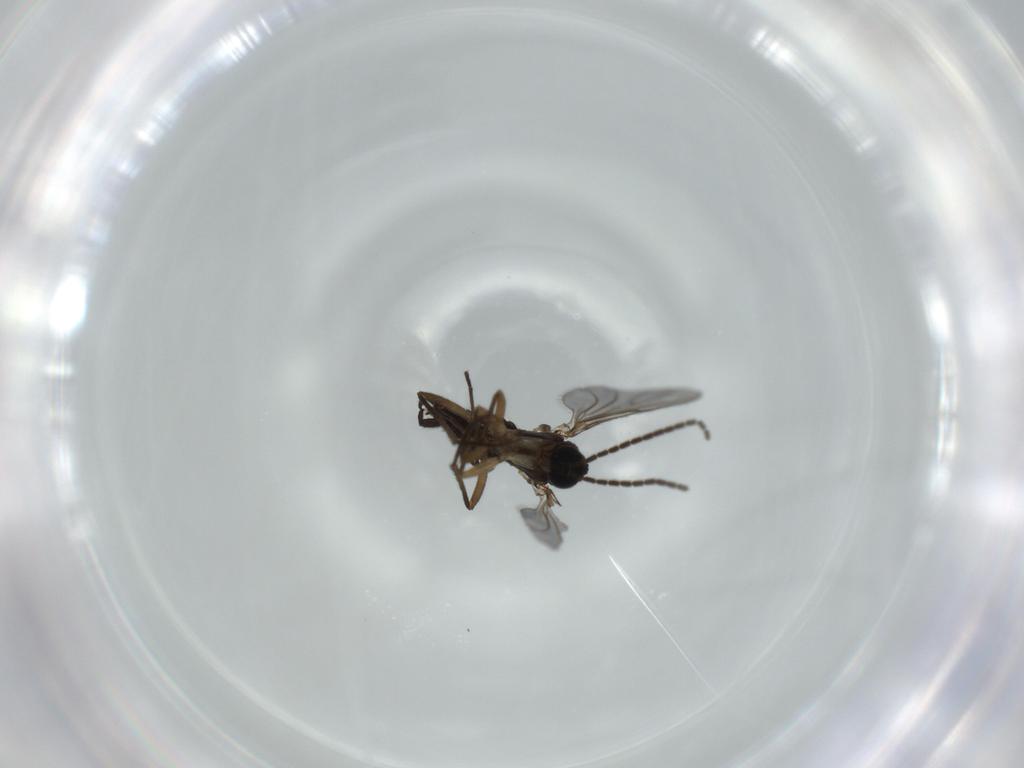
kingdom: Animalia
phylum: Arthropoda
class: Insecta
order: Diptera
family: Sciaridae
